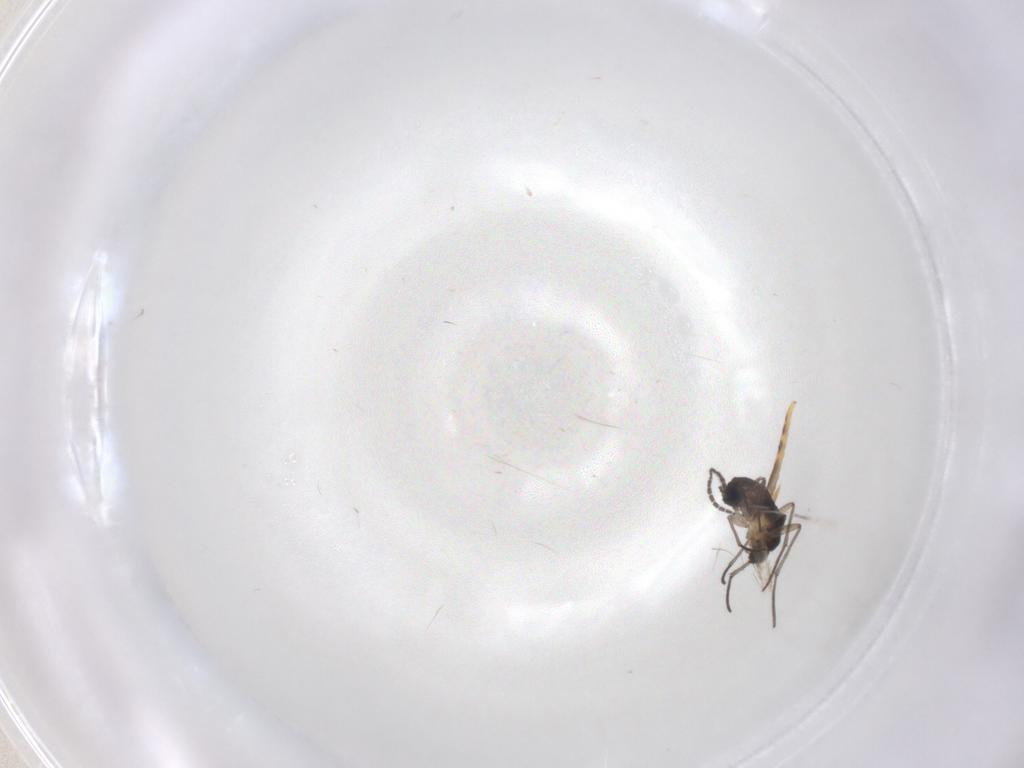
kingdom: Animalia
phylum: Arthropoda
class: Insecta
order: Diptera
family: Sciaridae
